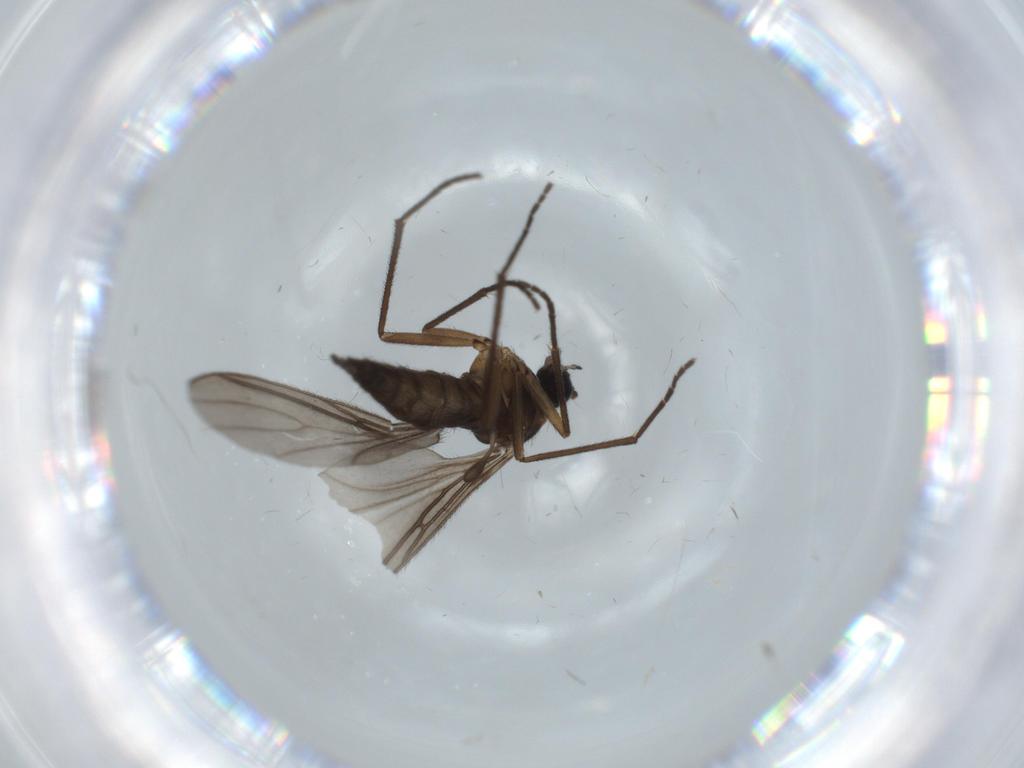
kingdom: Animalia
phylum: Arthropoda
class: Insecta
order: Diptera
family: Sciaridae
